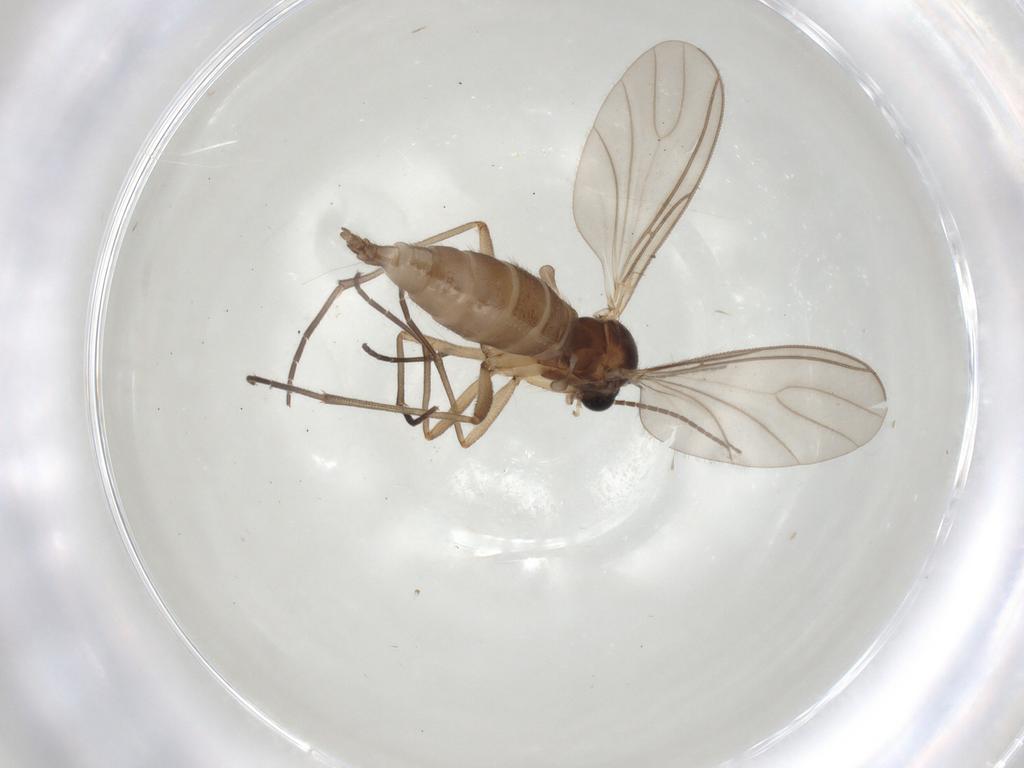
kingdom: Animalia
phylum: Arthropoda
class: Insecta
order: Diptera
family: Sciaridae
